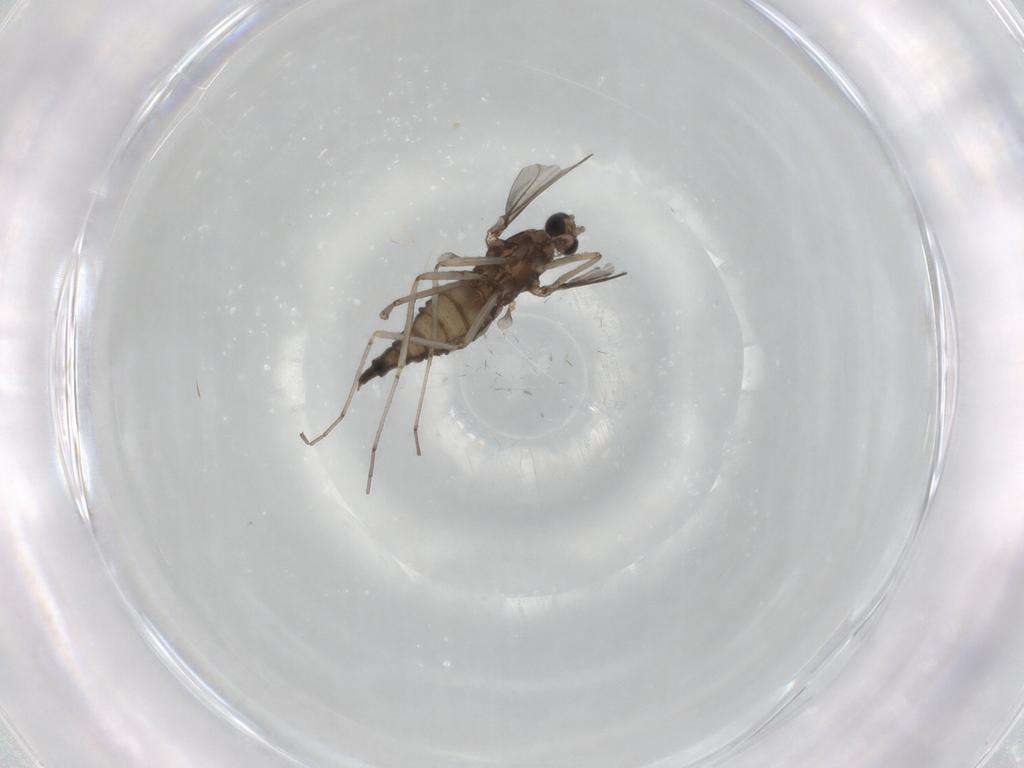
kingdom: Animalia
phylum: Arthropoda
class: Insecta
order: Diptera
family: Cecidomyiidae
